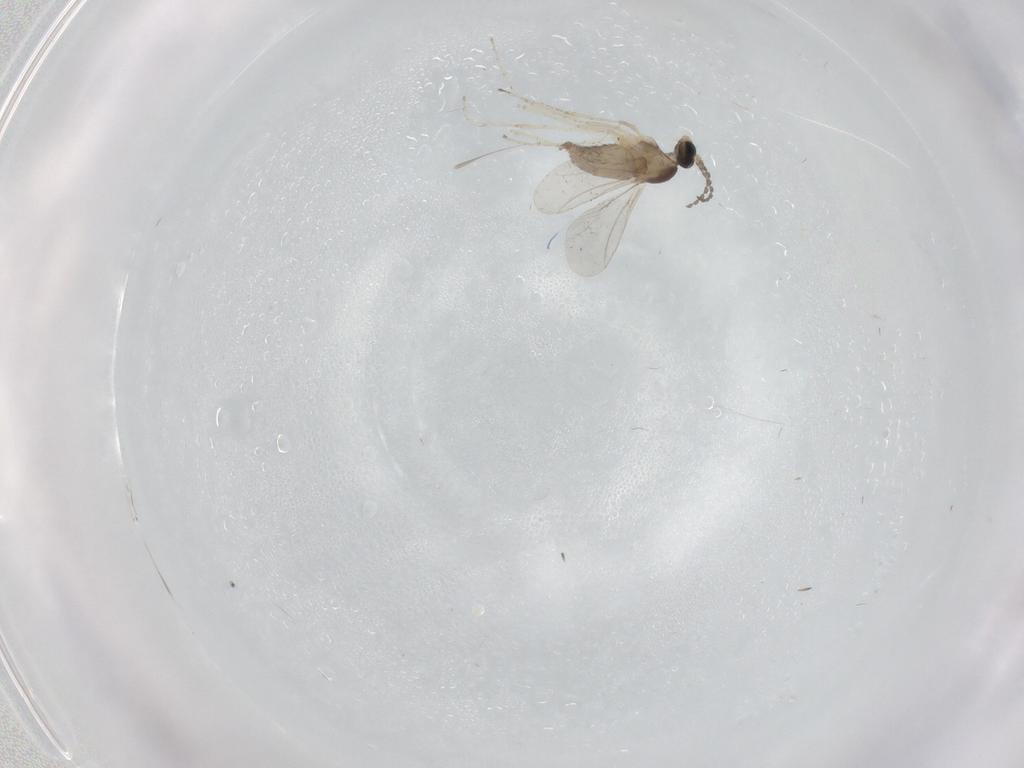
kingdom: Animalia
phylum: Arthropoda
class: Insecta
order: Diptera
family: Cecidomyiidae
